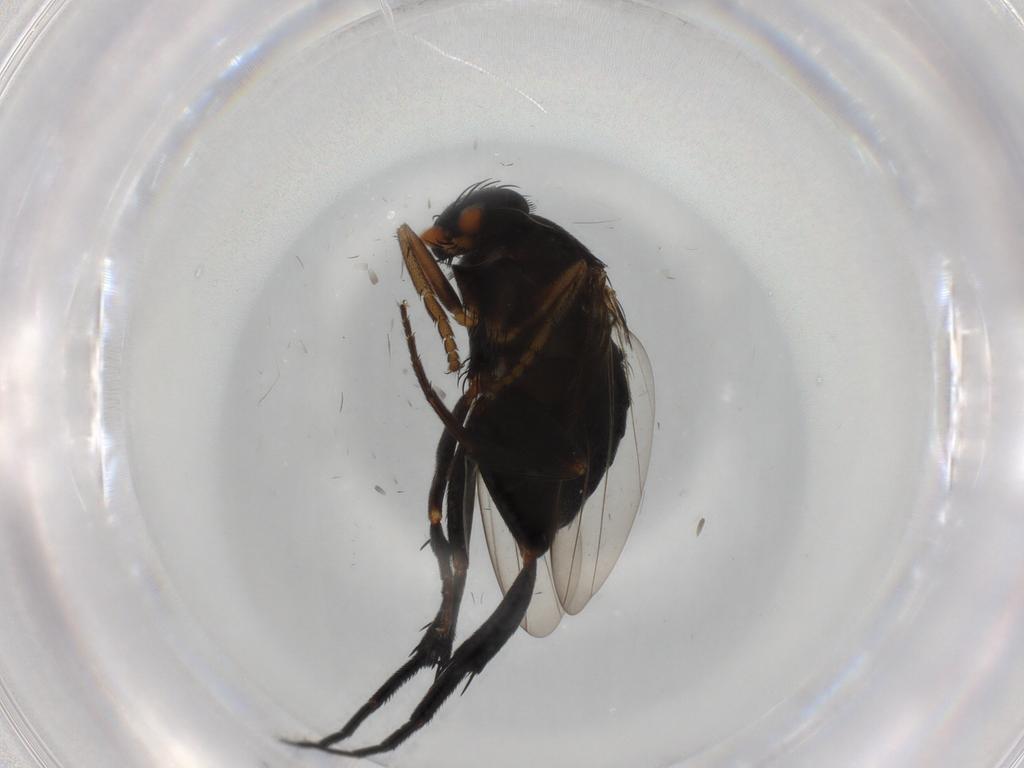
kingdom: Animalia
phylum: Arthropoda
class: Insecta
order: Diptera
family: Phoridae
